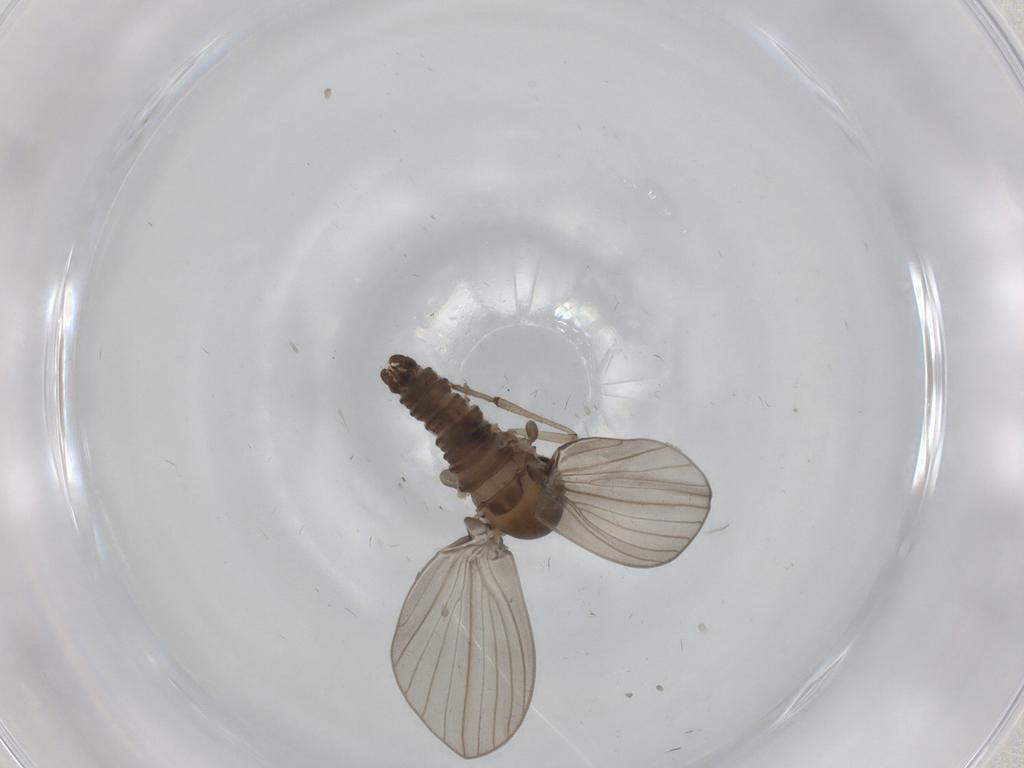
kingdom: Animalia
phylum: Arthropoda
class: Insecta
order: Diptera
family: Psychodidae
